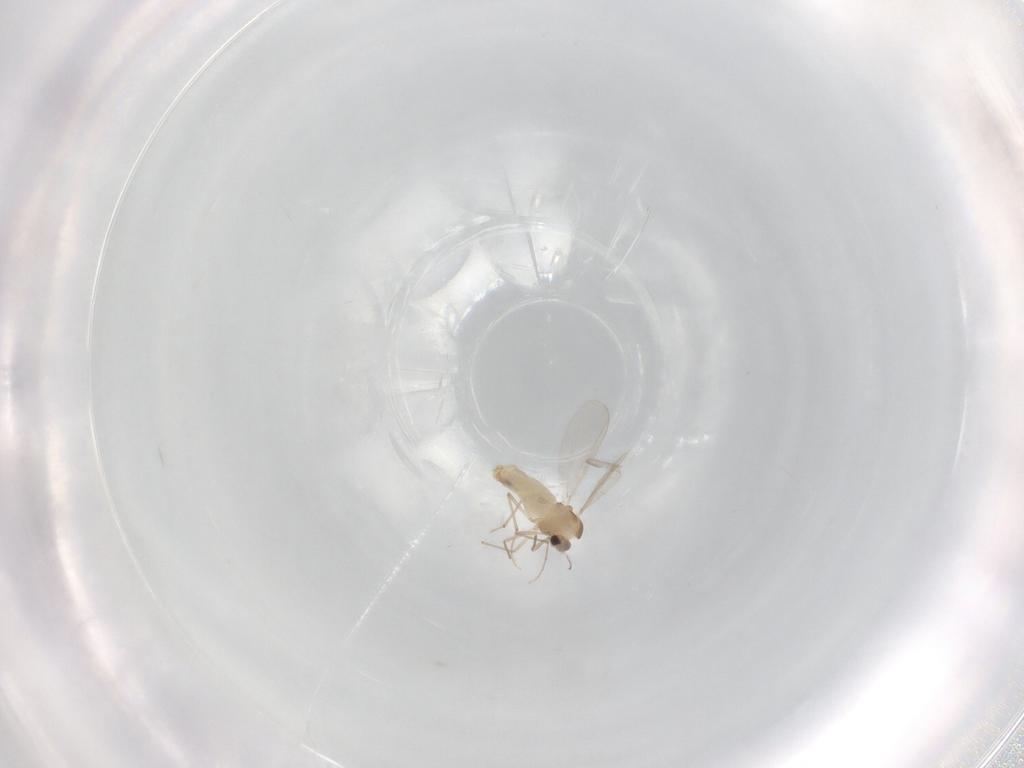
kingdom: Animalia
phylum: Arthropoda
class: Insecta
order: Diptera
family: Chironomidae
